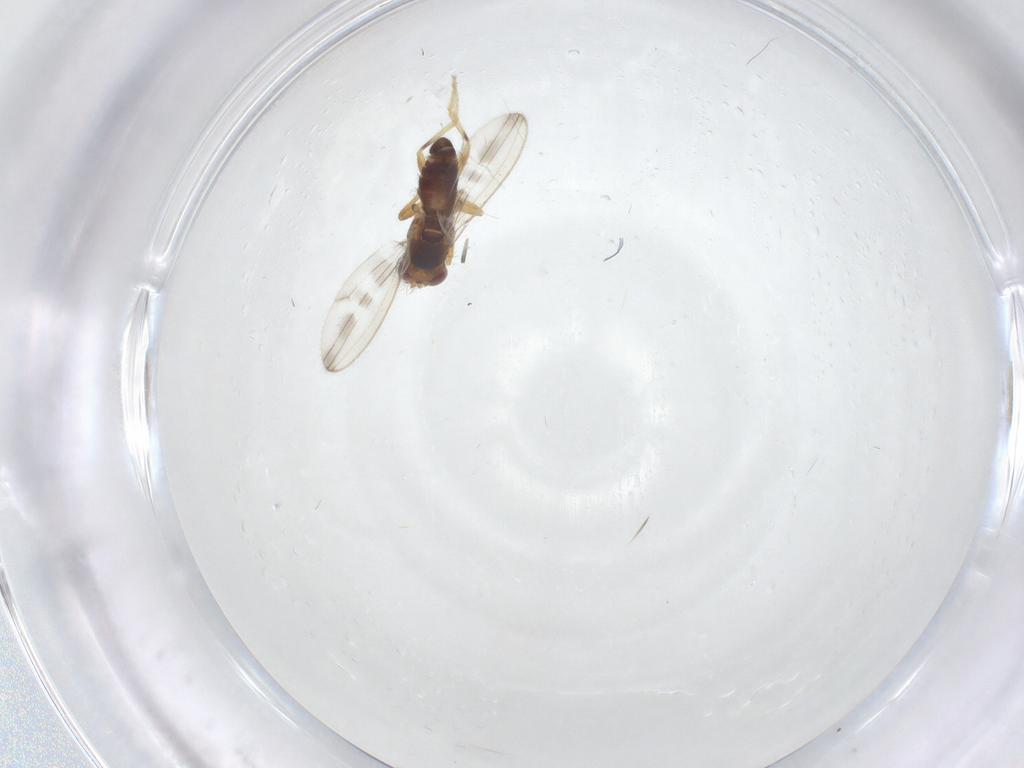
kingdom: Animalia
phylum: Arthropoda
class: Insecta
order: Diptera
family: Periscelididae
